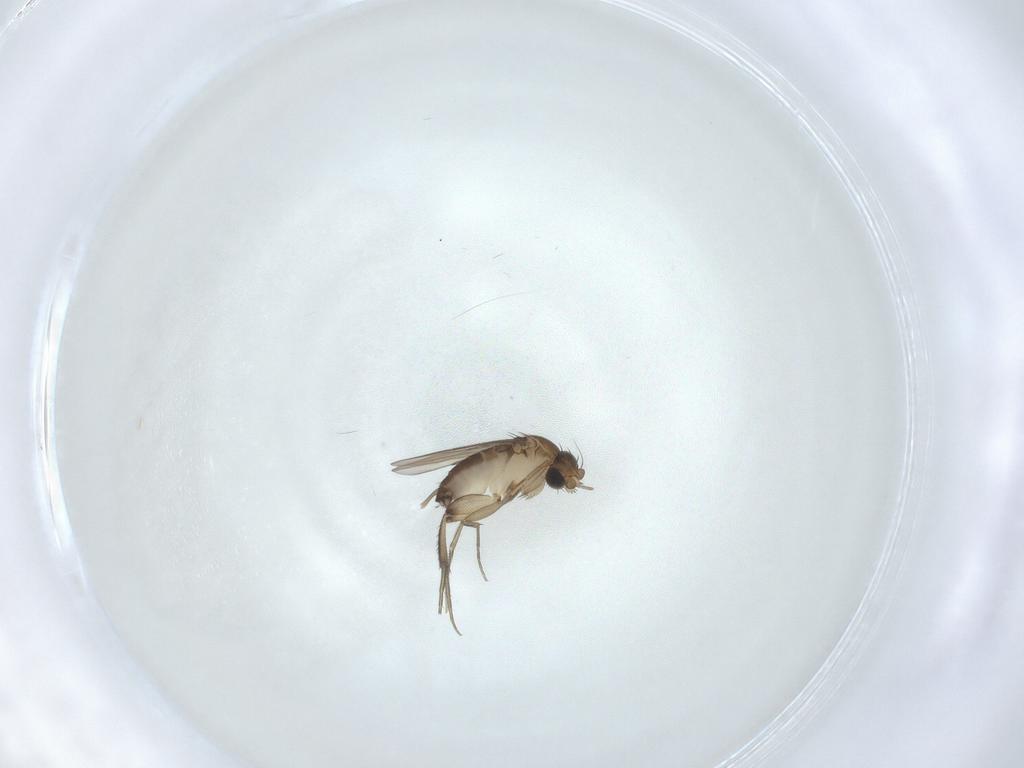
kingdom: Animalia
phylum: Arthropoda
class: Insecta
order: Diptera
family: Phoridae
